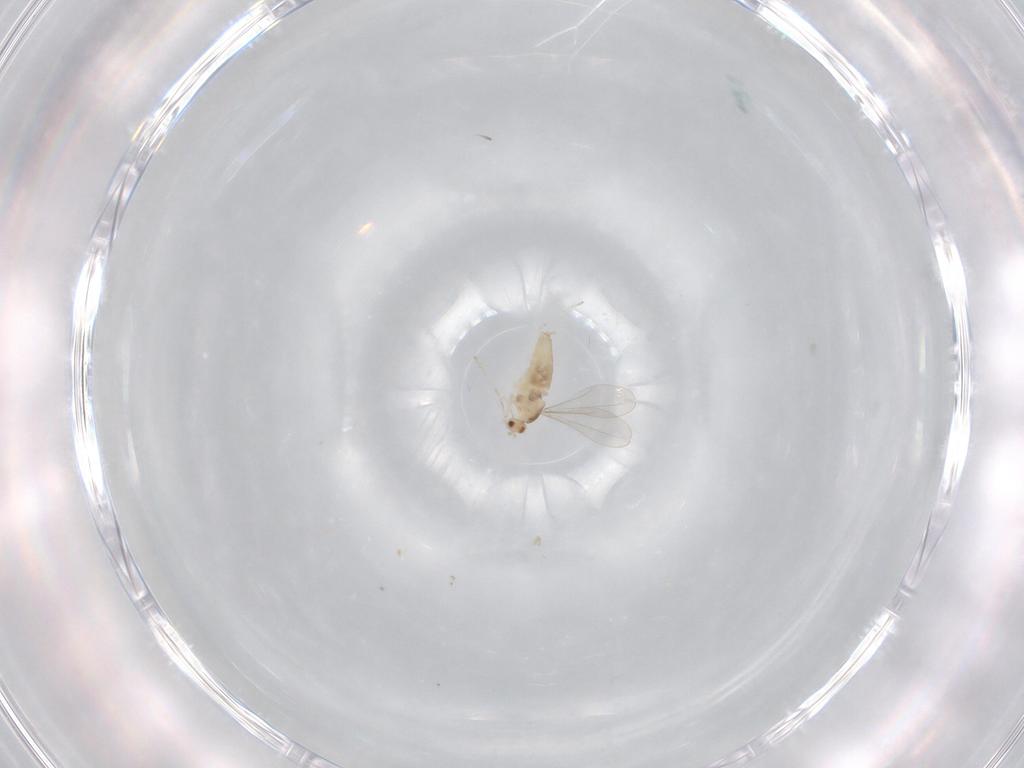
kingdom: Animalia
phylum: Arthropoda
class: Insecta
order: Diptera
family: Cecidomyiidae
